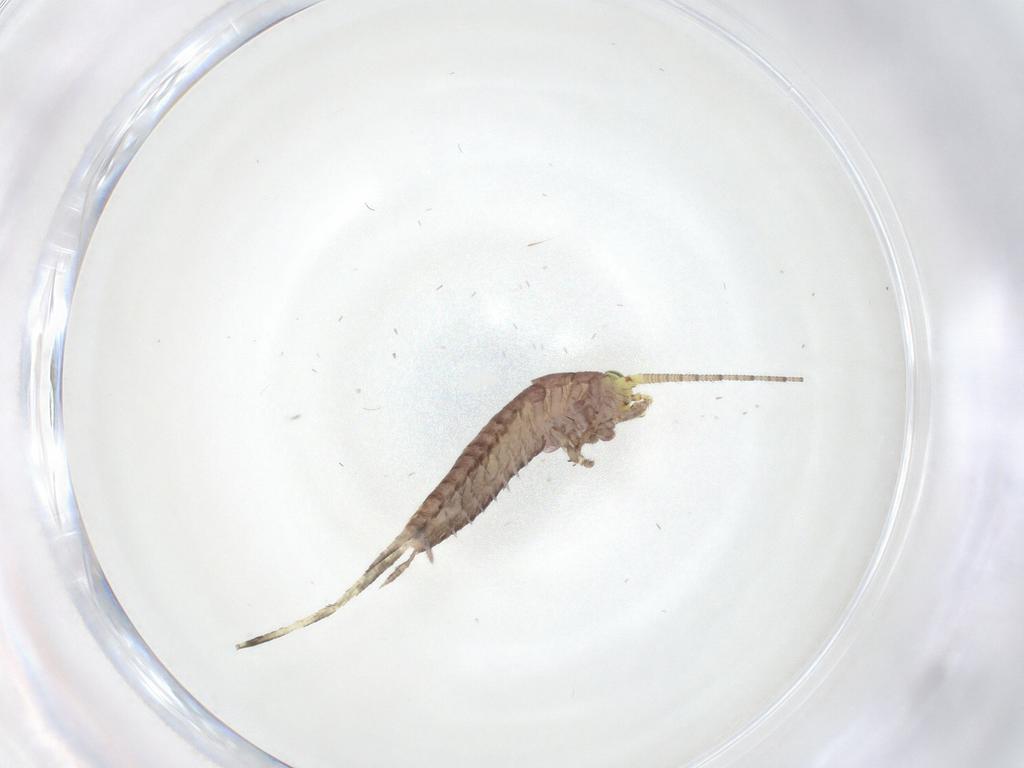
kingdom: Animalia
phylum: Arthropoda
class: Insecta
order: Archaeognatha
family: Machilidae
